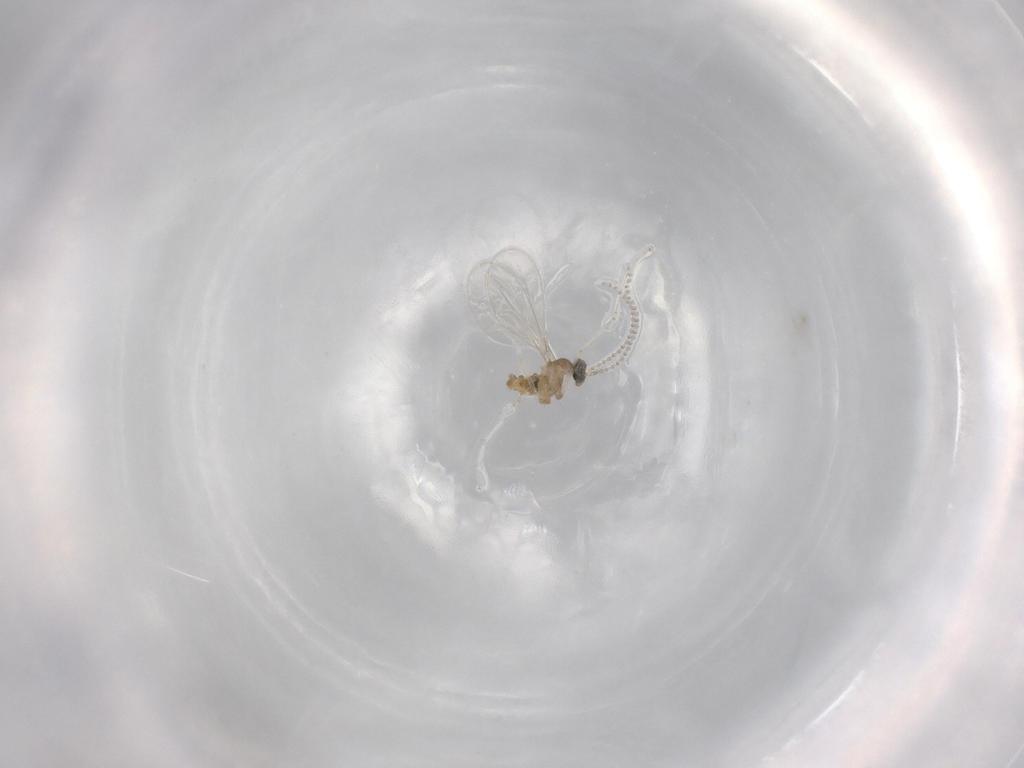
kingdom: Animalia
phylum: Arthropoda
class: Insecta
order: Diptera
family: Cecidomyiidae
